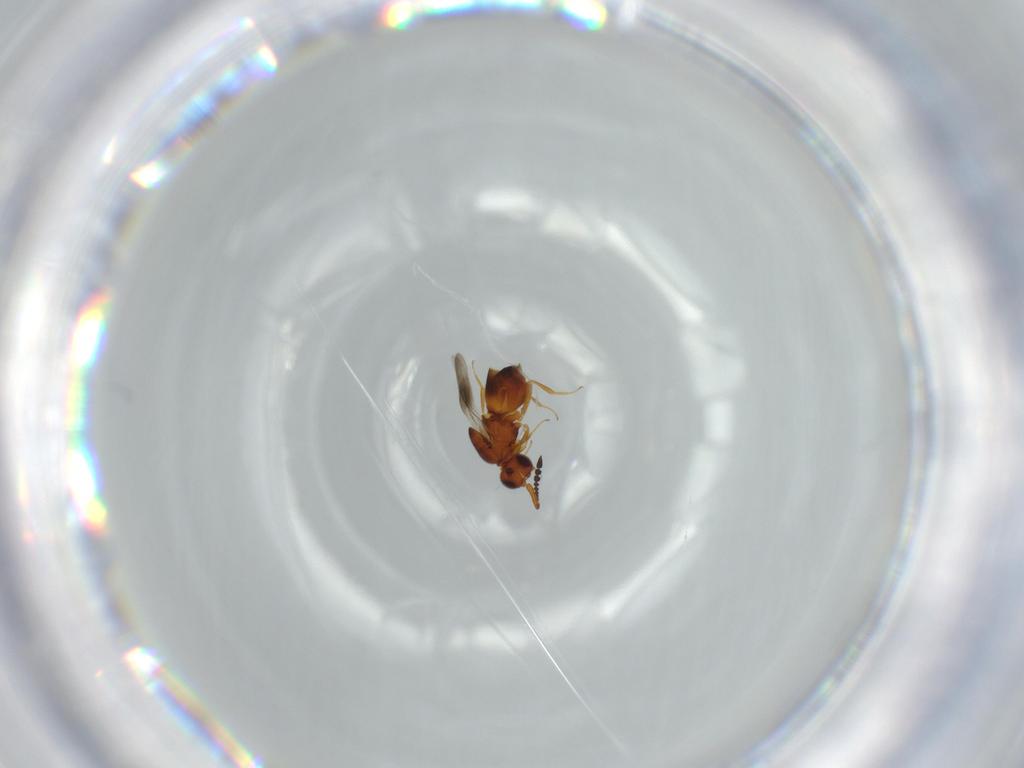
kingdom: Animalia
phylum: Arthropoda
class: Insecta
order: Hymenoptera
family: Ceraphronidae
